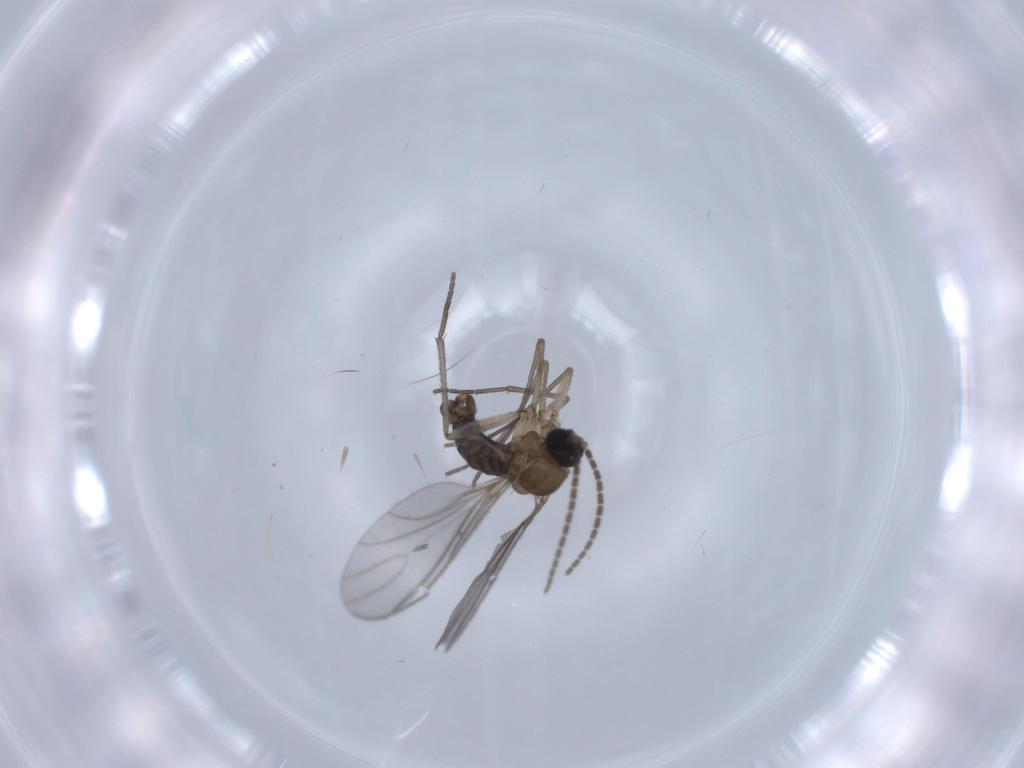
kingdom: Animalia
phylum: Arthropoda
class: Insecta
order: Diptera
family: Sciaridae
